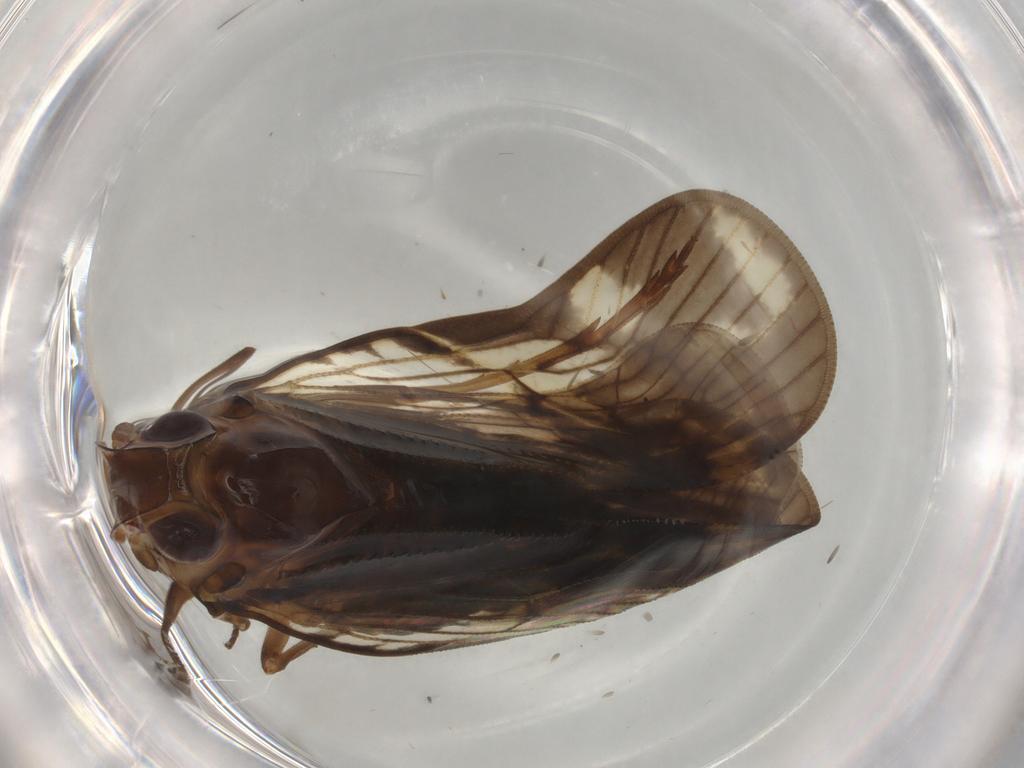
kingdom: Animalia
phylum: Arthropoda
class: Insecta
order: Hemiptera
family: Cixiidae
